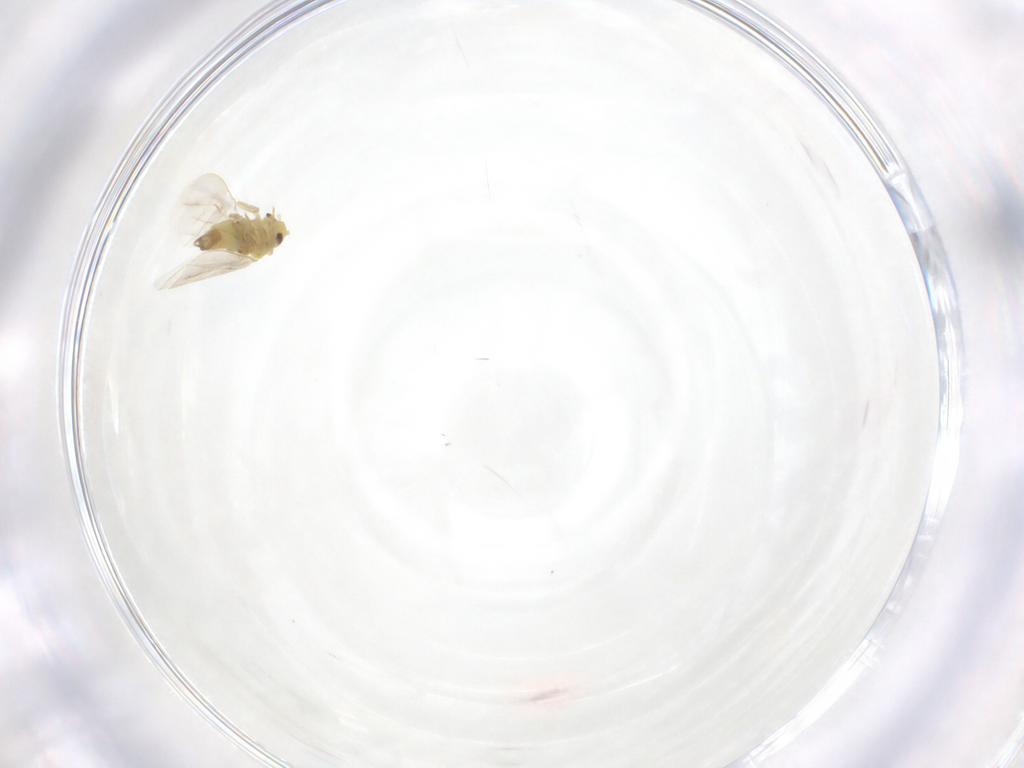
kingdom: Animalia
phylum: Arthropoda
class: Insecta
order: Hemiptera
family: Aleyrodidae
